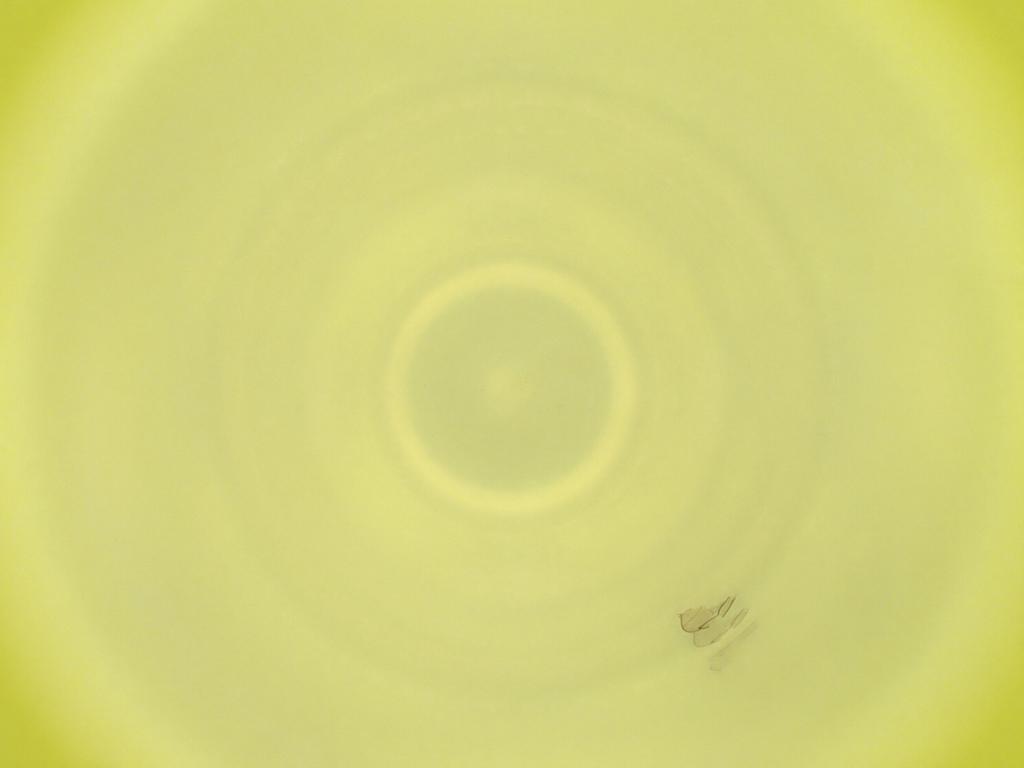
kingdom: Animalia
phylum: Arthropoda
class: Insecta
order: Diptera
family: Cecidomyiidae
